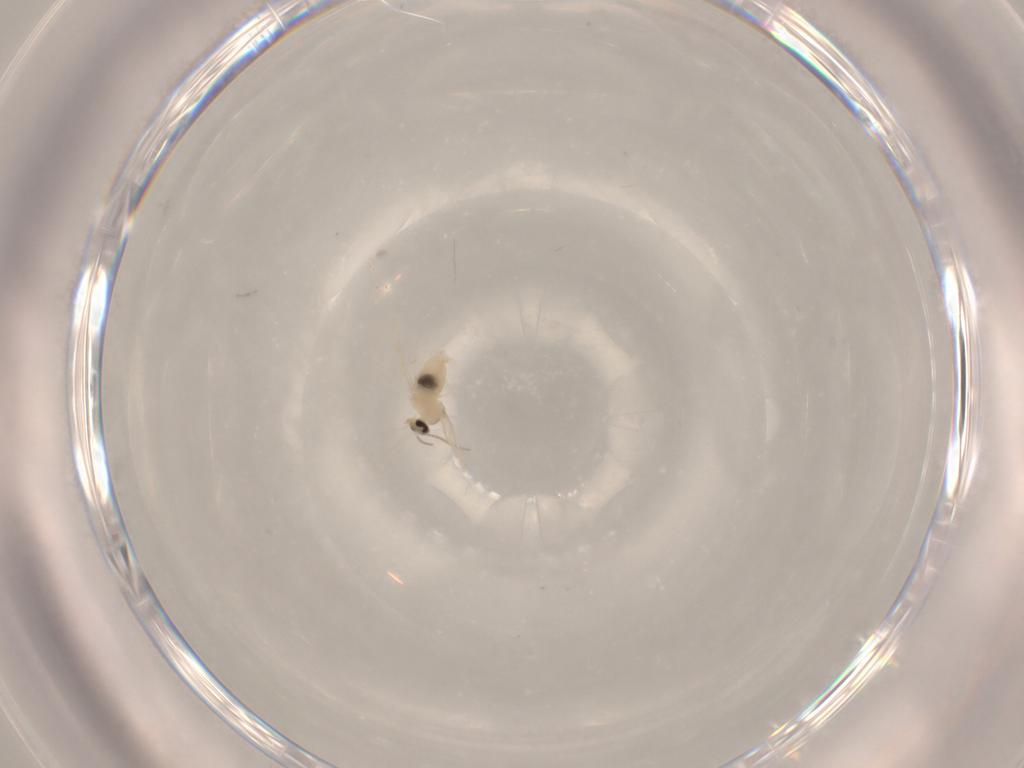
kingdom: Animalia
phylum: Arthropoda
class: Insecta
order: Diptera
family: Cecidomyiidae
